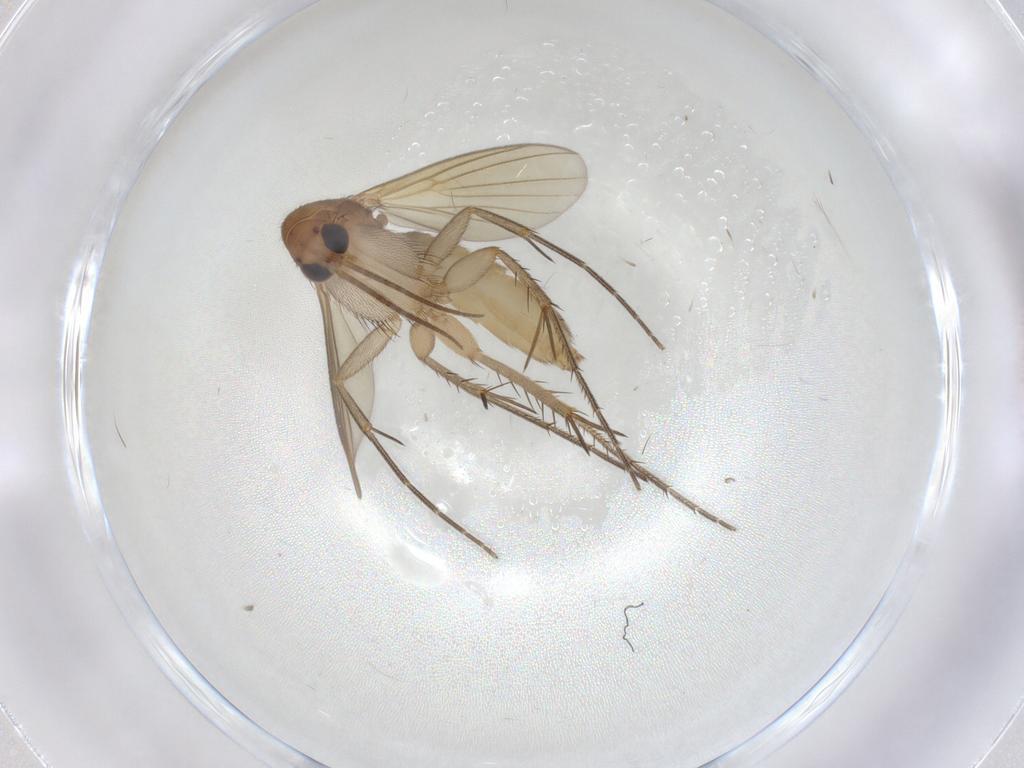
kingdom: Animalia
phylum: Arthropoda
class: Insecta
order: Diptera
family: Mycetophilidae
